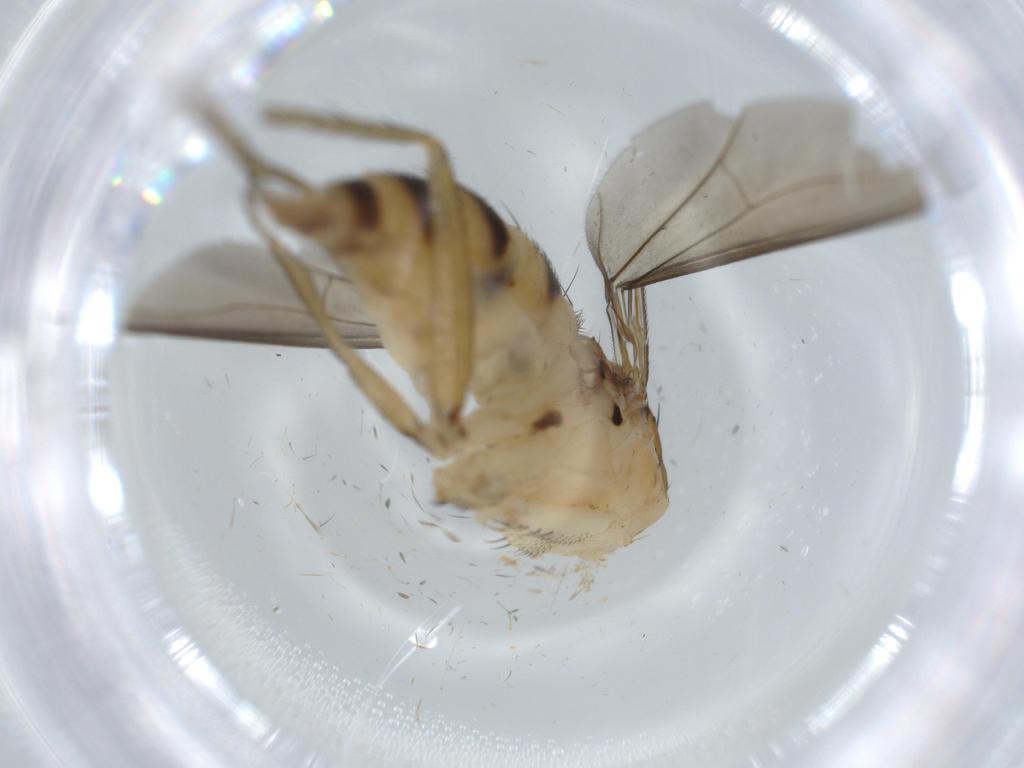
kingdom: Animalia
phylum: Arthropoda
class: Insecta
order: Diptera
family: Dolichopodidae
